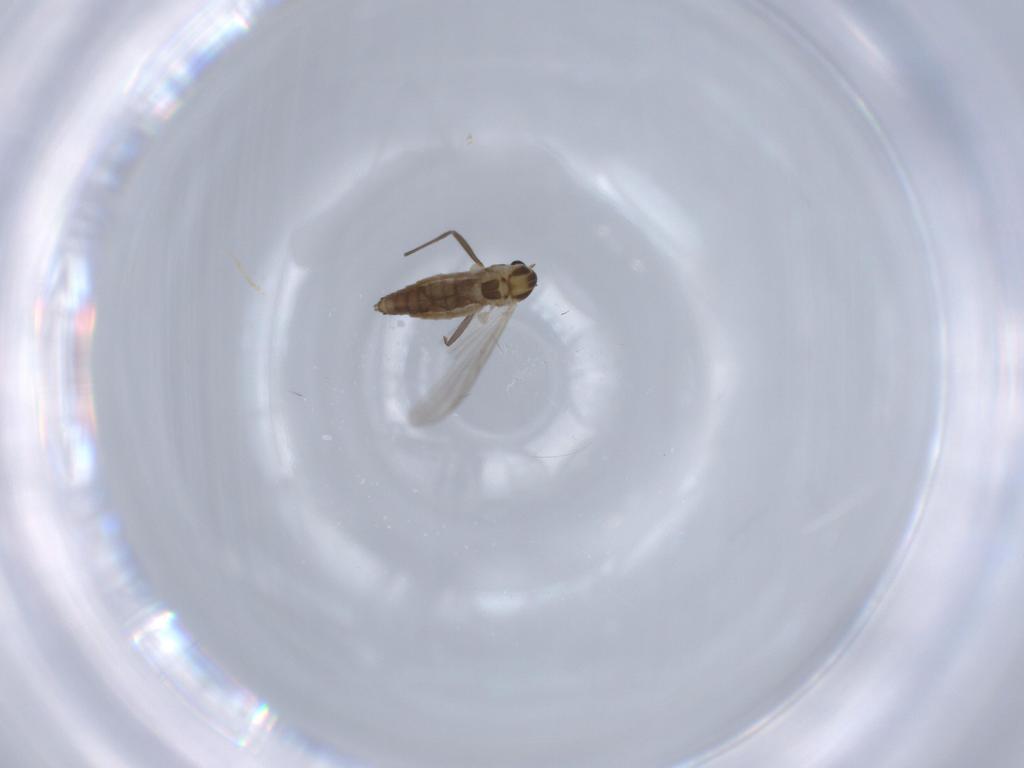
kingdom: Animalia
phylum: Arthropoda
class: Insecta
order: Diptera
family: Chironomidae
